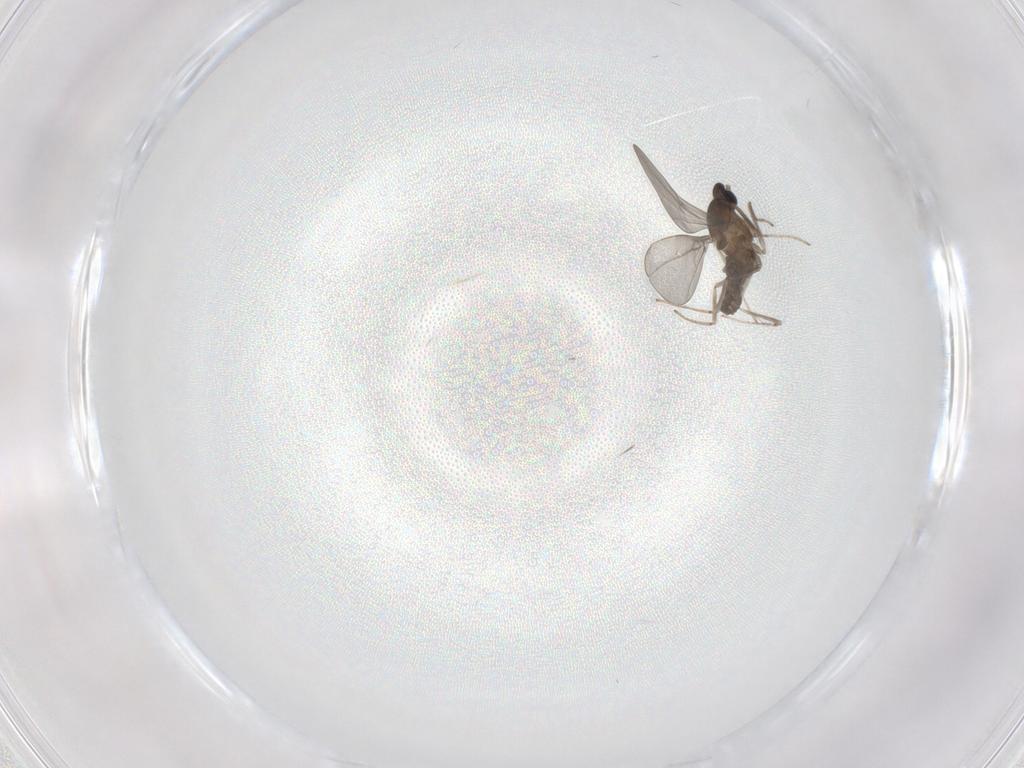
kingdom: Animalia
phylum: Arthropoda
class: Insecta
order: Diptera
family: Cecidomyiidae
